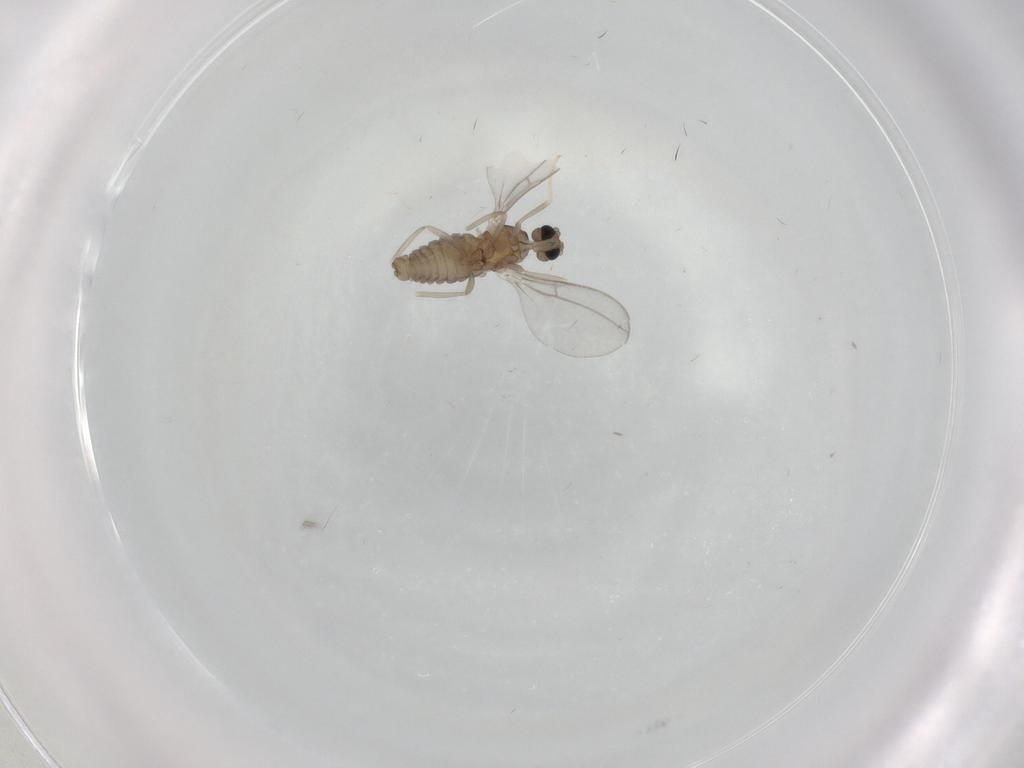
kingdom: Animalia
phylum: Arthropoda
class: Insecta
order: Diptera
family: Cecidomyiidae
